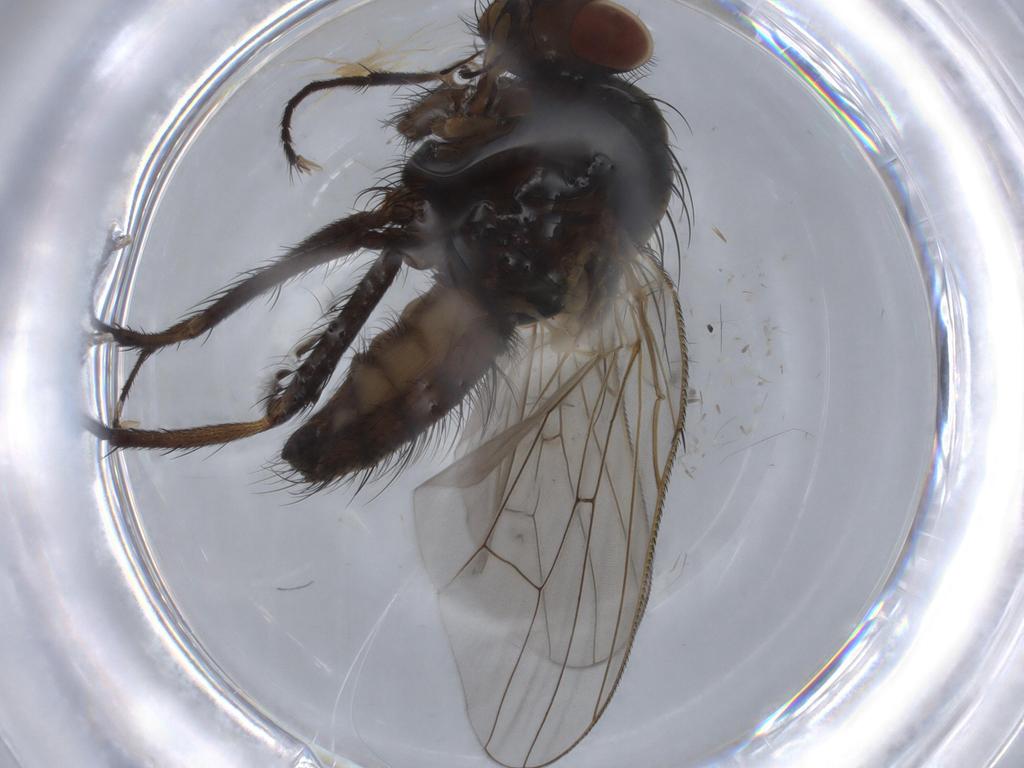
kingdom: Animalia
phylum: Arthropoda
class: Insecta
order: Diptera
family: Anthomyiidae
